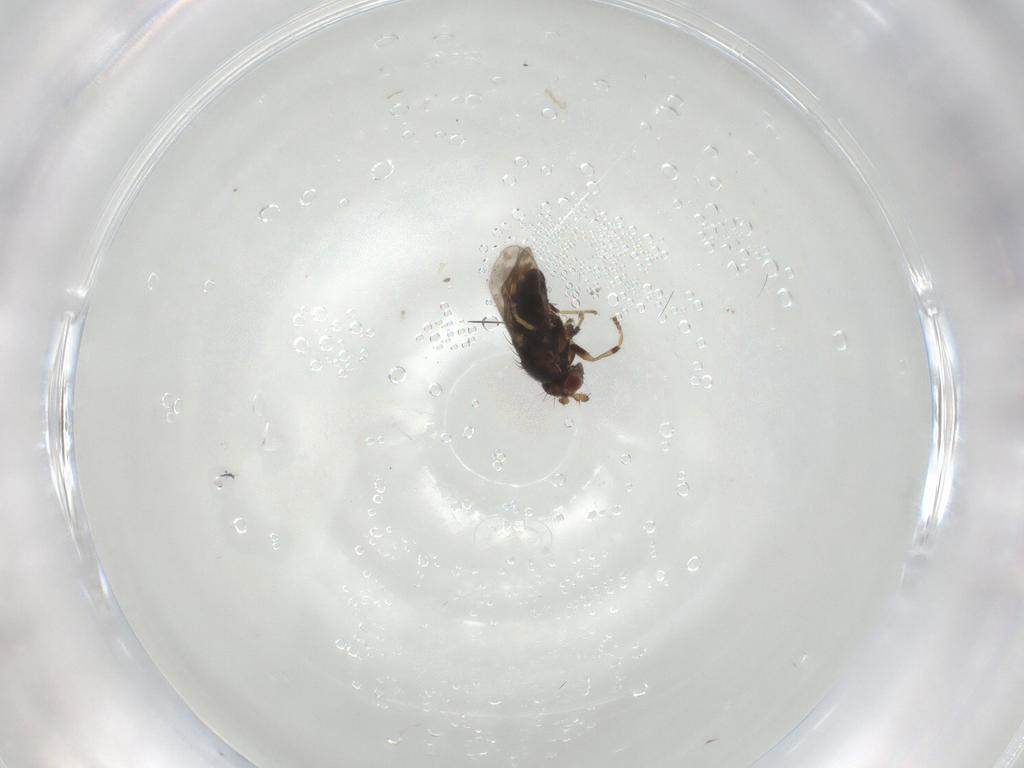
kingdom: Animalia
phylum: Arthropoda
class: Insecta
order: Diptera
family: Sphaeroceridae
